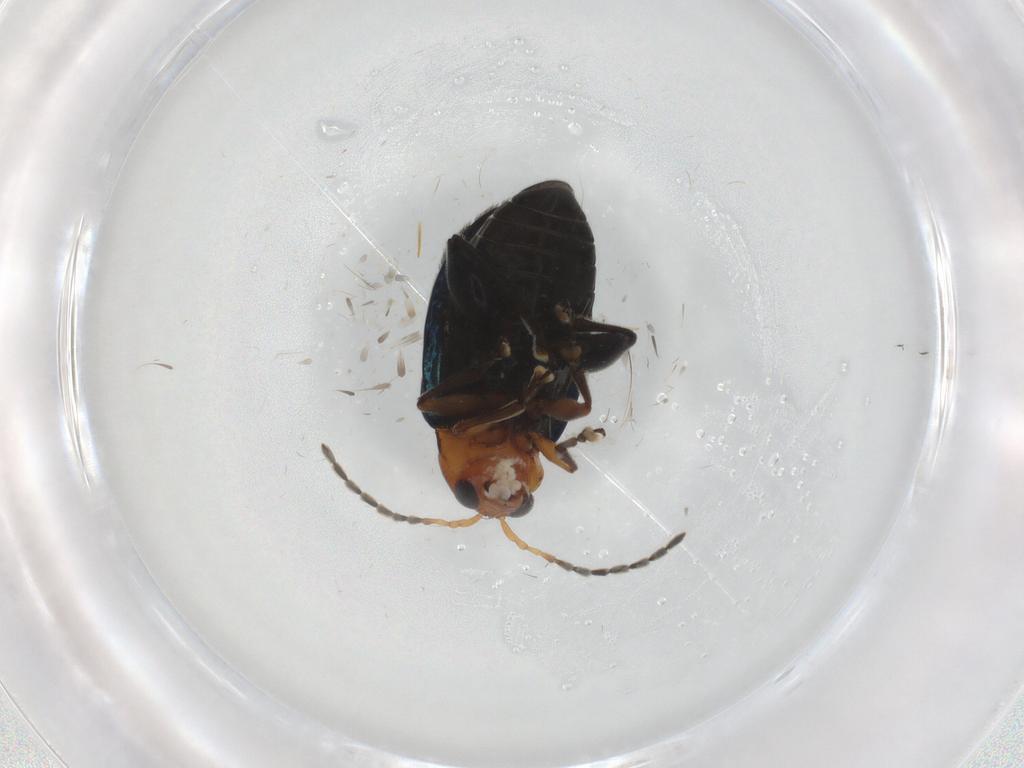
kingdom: Animalia
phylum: Arthropoda
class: Insecta
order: Coleoptera
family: Chrysomelidae
